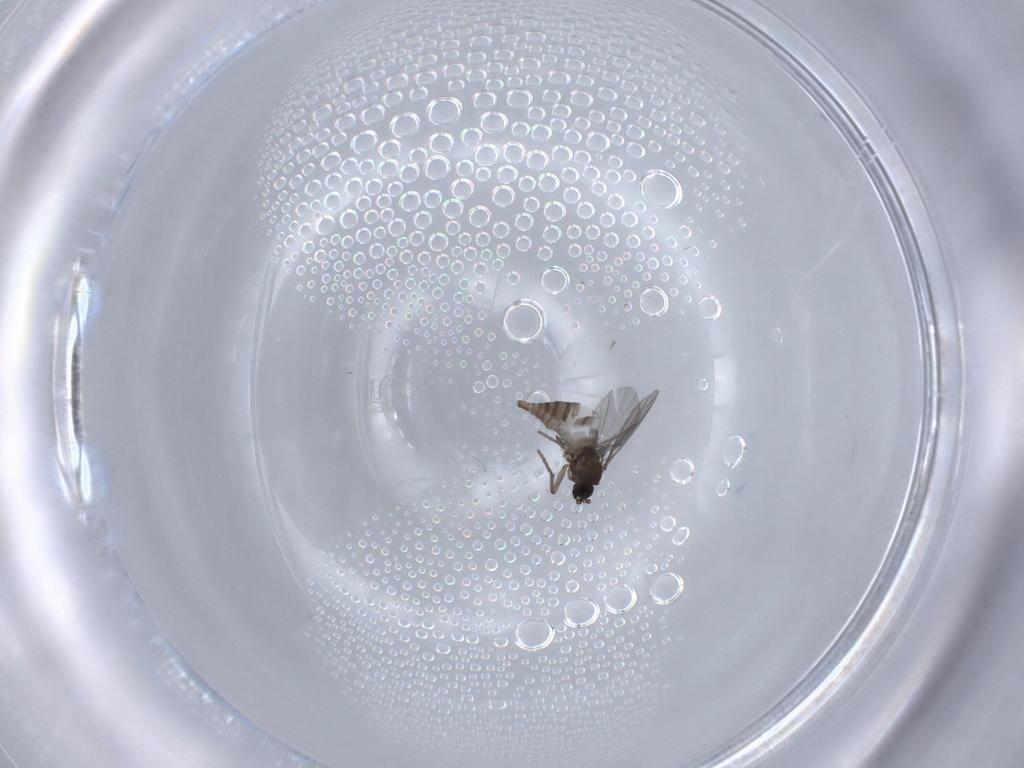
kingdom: Animalia
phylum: Arthropoda
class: Insecta
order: Diptera
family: Sciaridae
